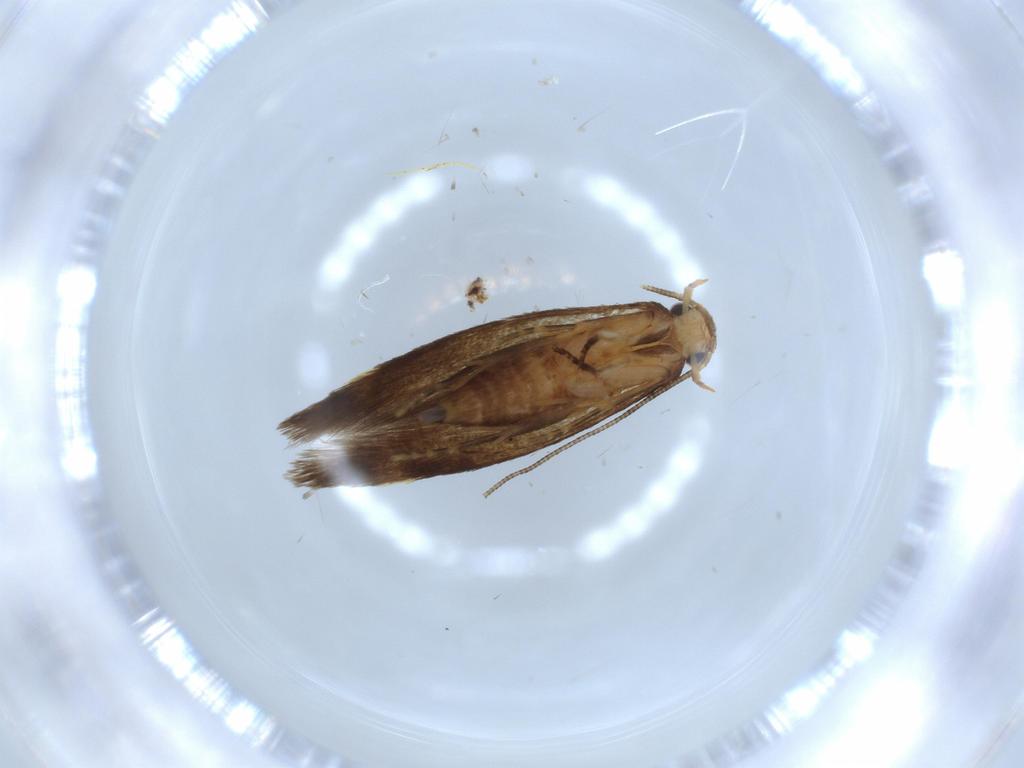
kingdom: Animalia
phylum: Arthropoda
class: Insecta
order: Lepidoptera
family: Tineidae
